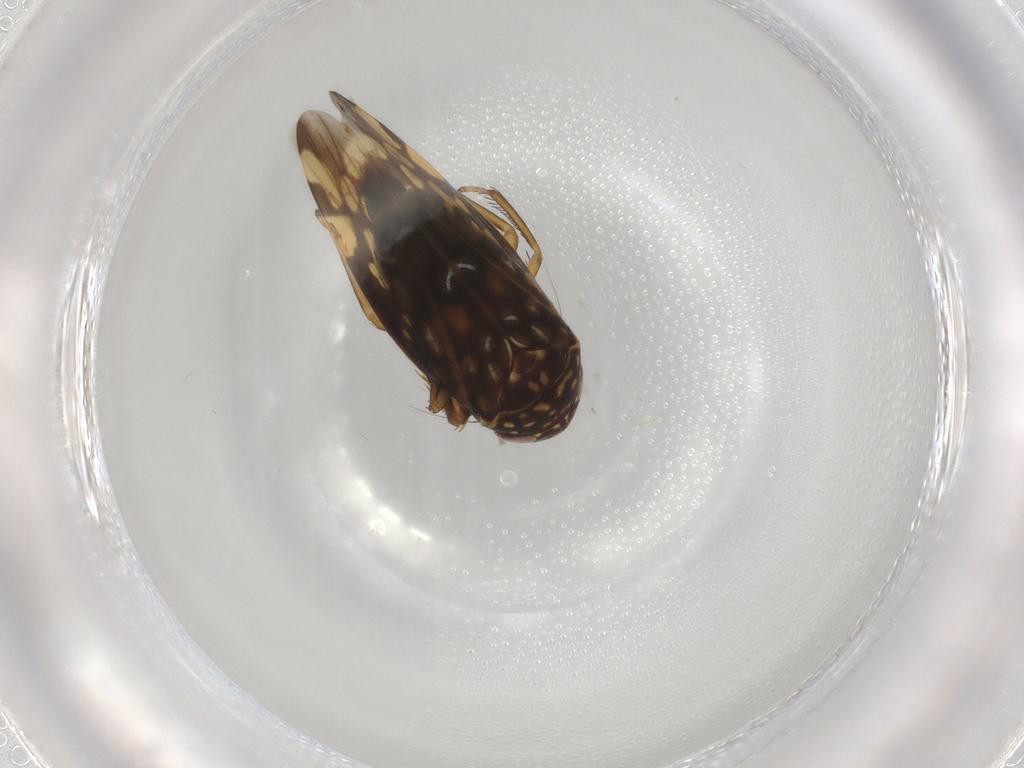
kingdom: Animalia
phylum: Arthropoda
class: Insecta
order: Hemiptera
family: Cicadellidae
